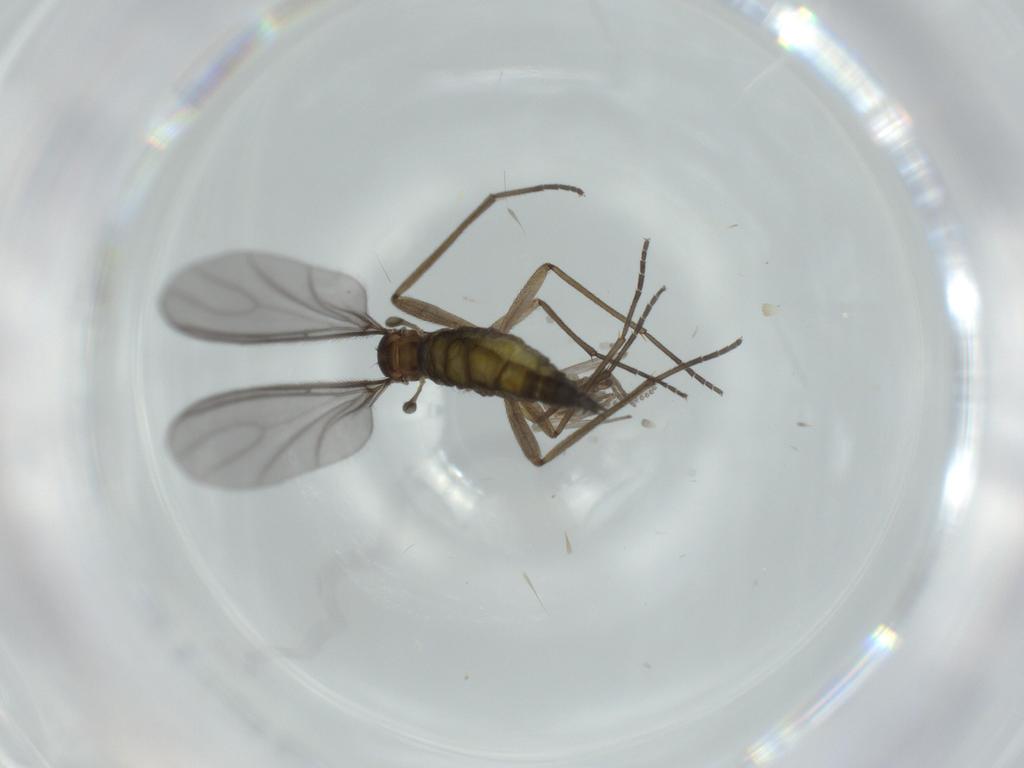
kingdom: Animalia
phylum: Arthropoda
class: Insecta
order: Diptera
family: Sciaridae
